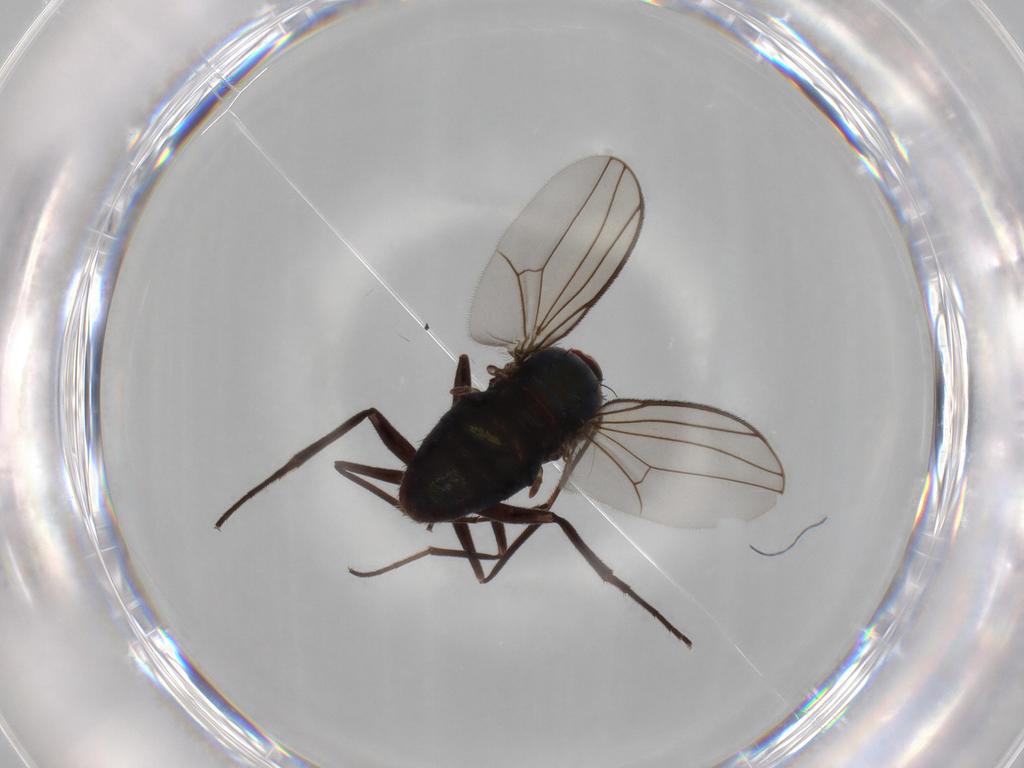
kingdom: Animalia
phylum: Arthropoda
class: Insecta
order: Diptera
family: Dolichopodidae
